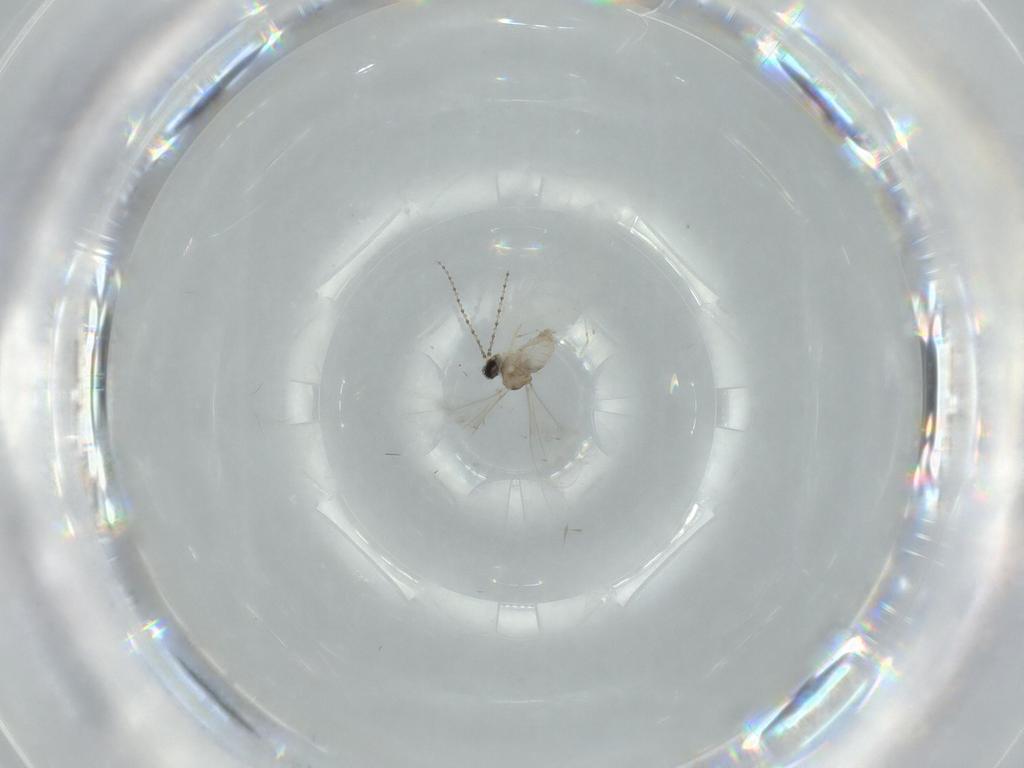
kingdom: Animalia
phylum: Arthropoda
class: Insecta
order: Diptera
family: Cecidomyiidae
